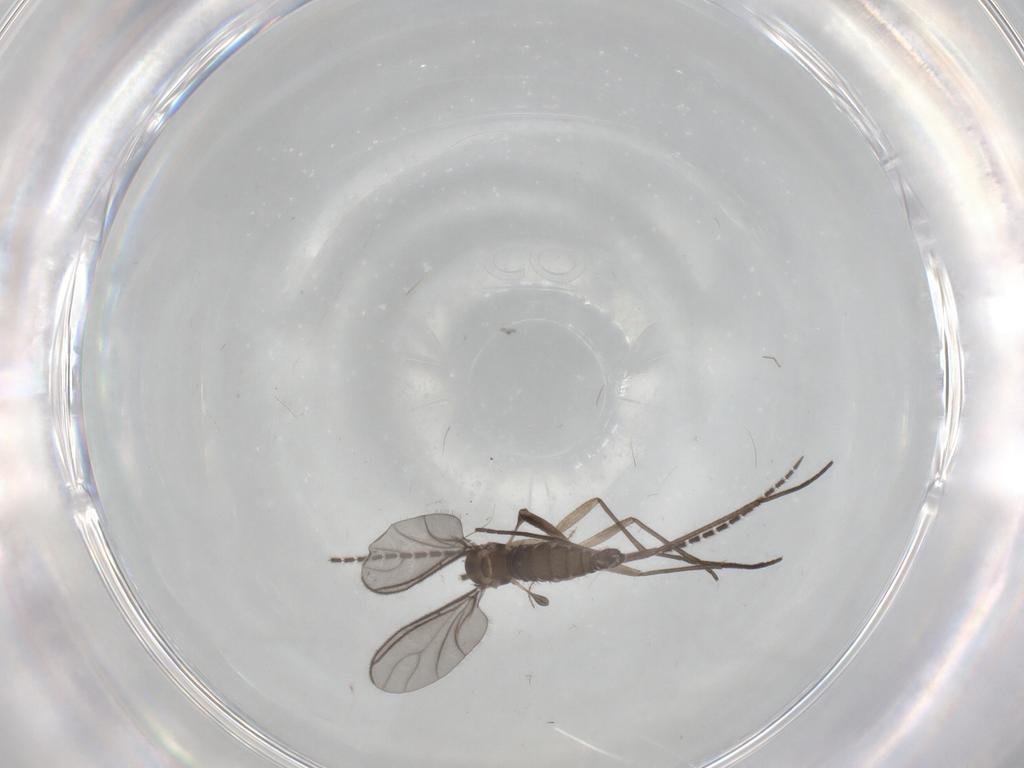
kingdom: Animalia
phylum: Arthropoda
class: Insecta
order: Diptera
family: Sciaridae
